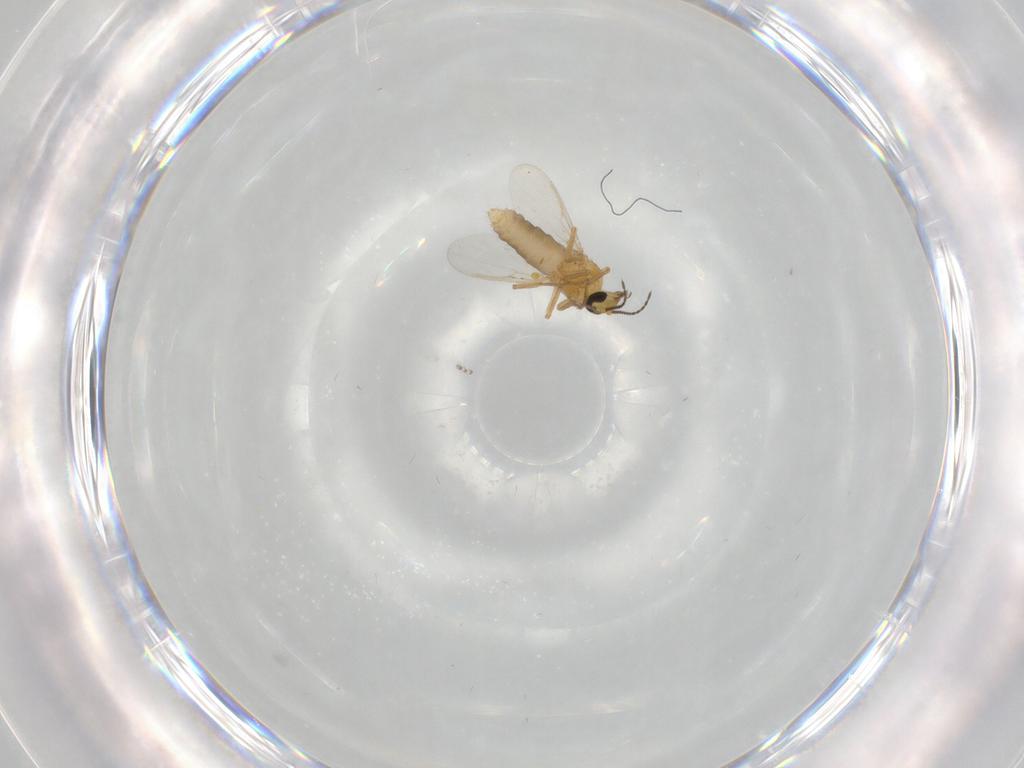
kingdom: Animalia
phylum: Arthropoda
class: Insecta
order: Diptera
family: Ceratopogonidae
